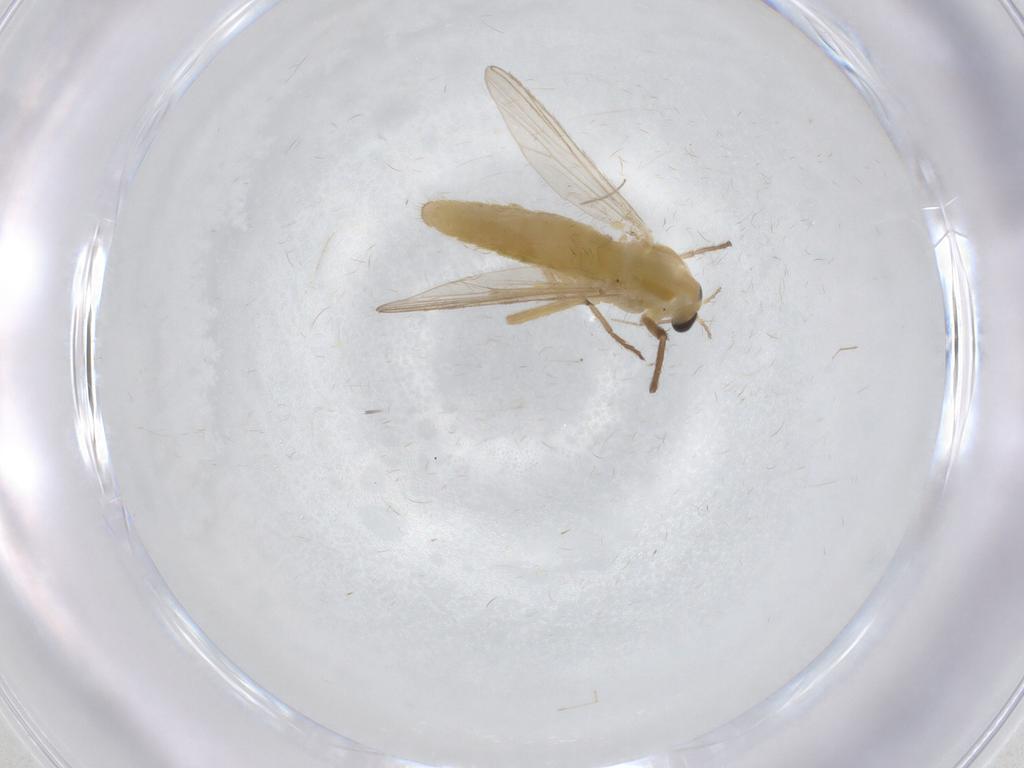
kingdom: Animalia
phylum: Arthropoda
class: Insecta
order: Diptera
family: Chironomidae
